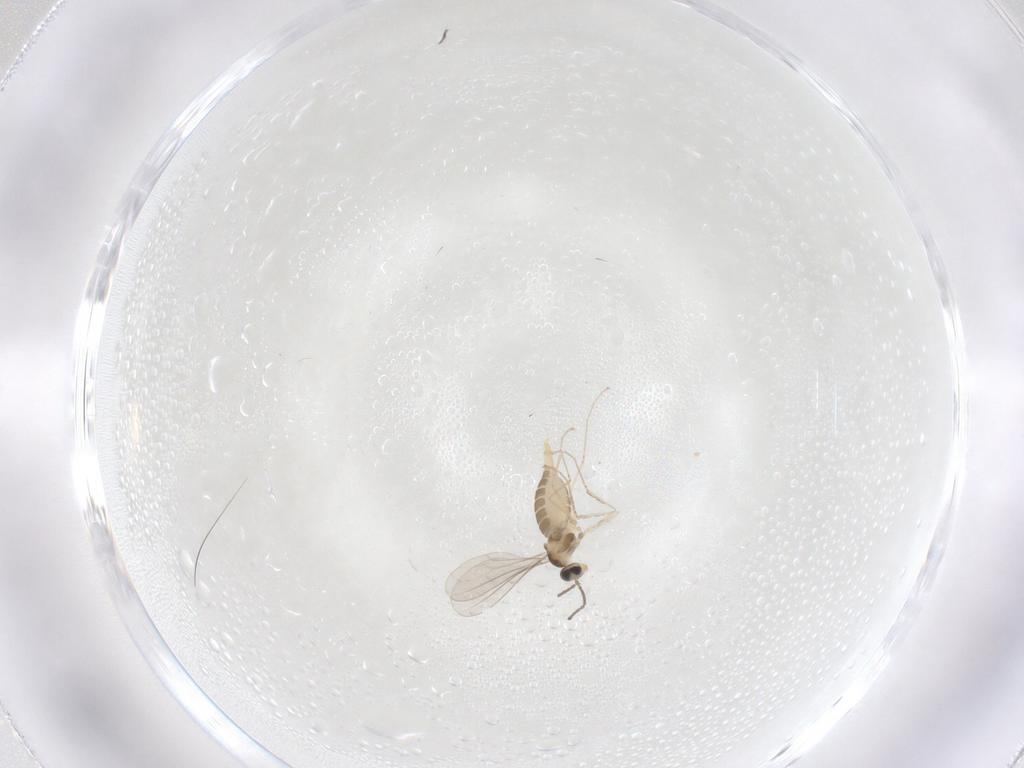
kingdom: Animalia
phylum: Arthropoda
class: Insecta
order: Diptera
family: Cecidomyiidae
